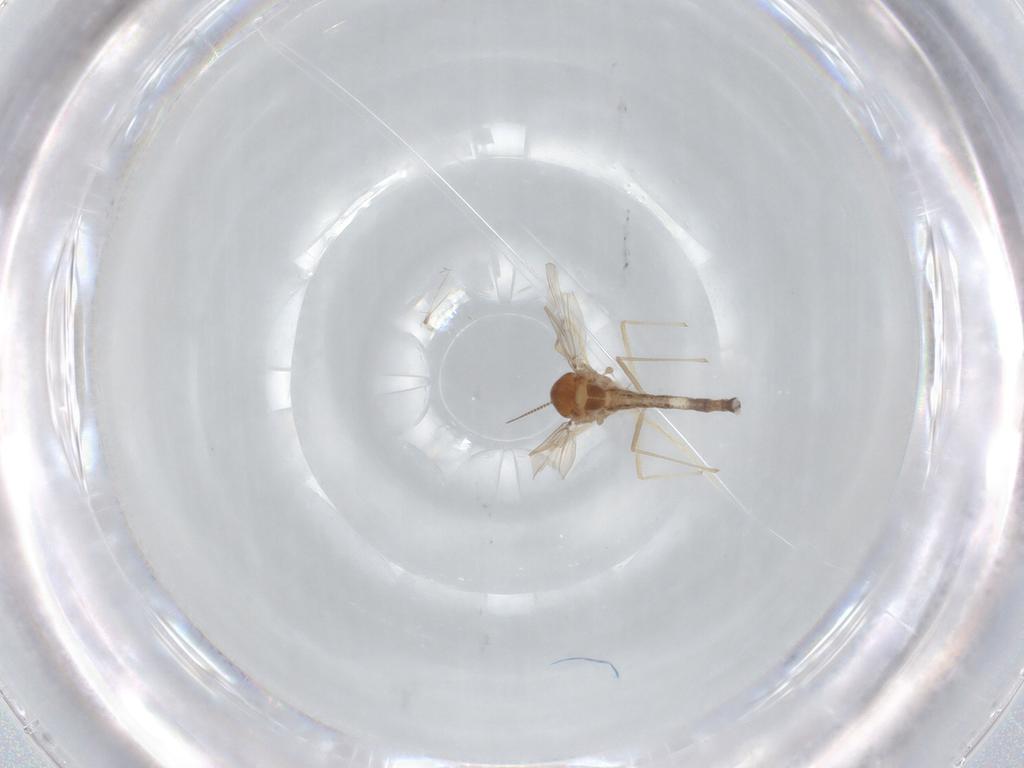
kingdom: Animalia
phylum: Arthropoda
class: Insecta
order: Diptera
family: Chironomidae
